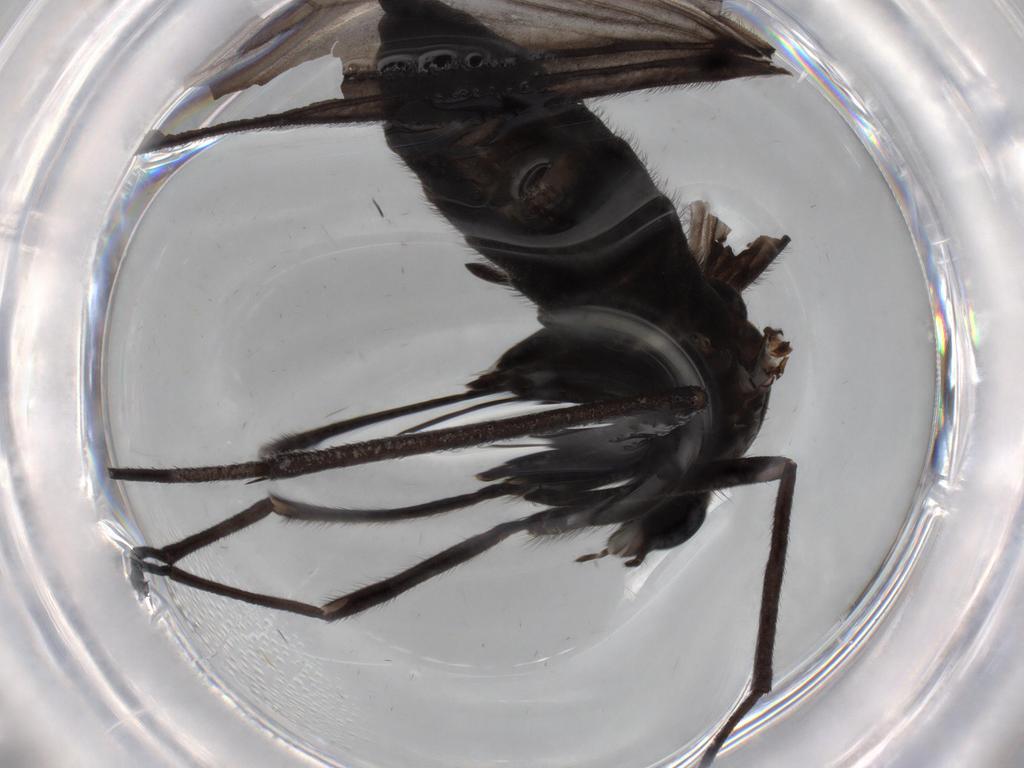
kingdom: Animalia
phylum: Arthropoda
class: Insecta
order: Diptera
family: Sciaridae
